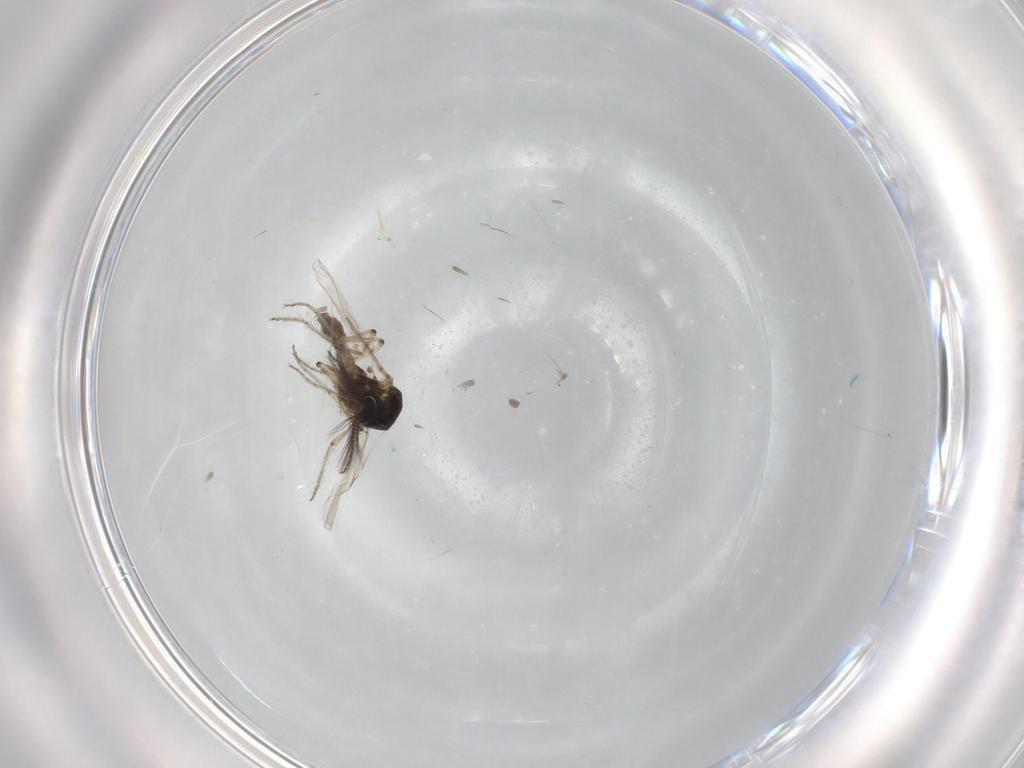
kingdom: Animalia
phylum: Arthropoda
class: Insecta
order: Diptera
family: Ceratopogonidae
